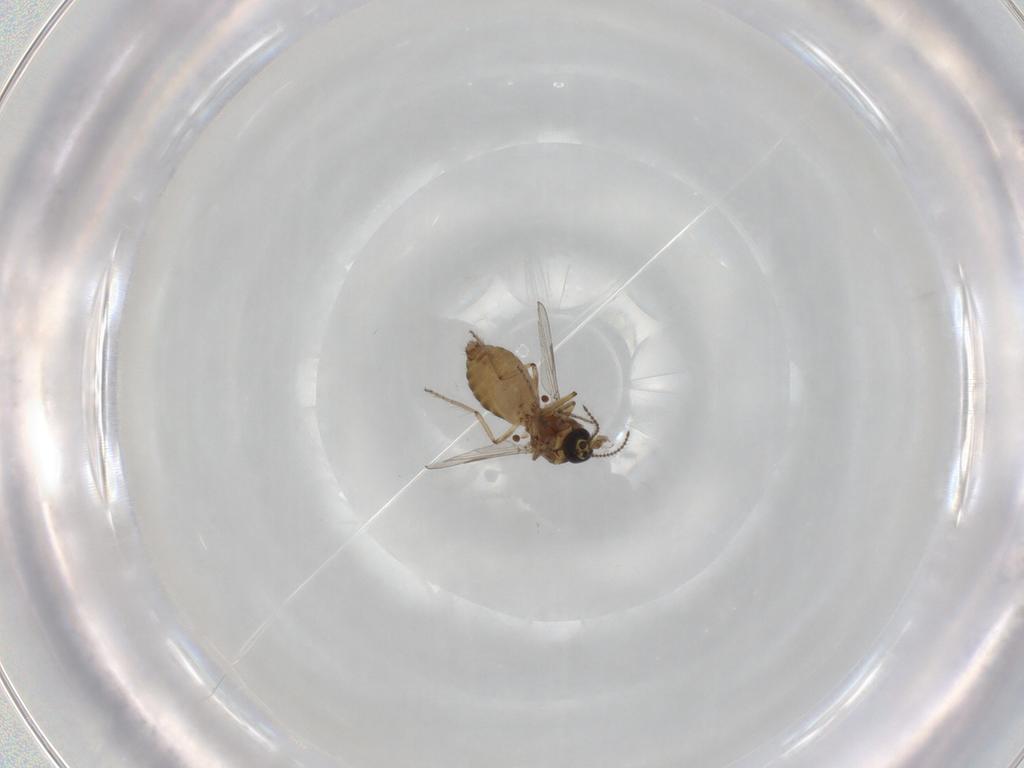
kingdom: Animalia
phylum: Arthropoda
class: Insecta
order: Diptera
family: Ceratopogonidae
